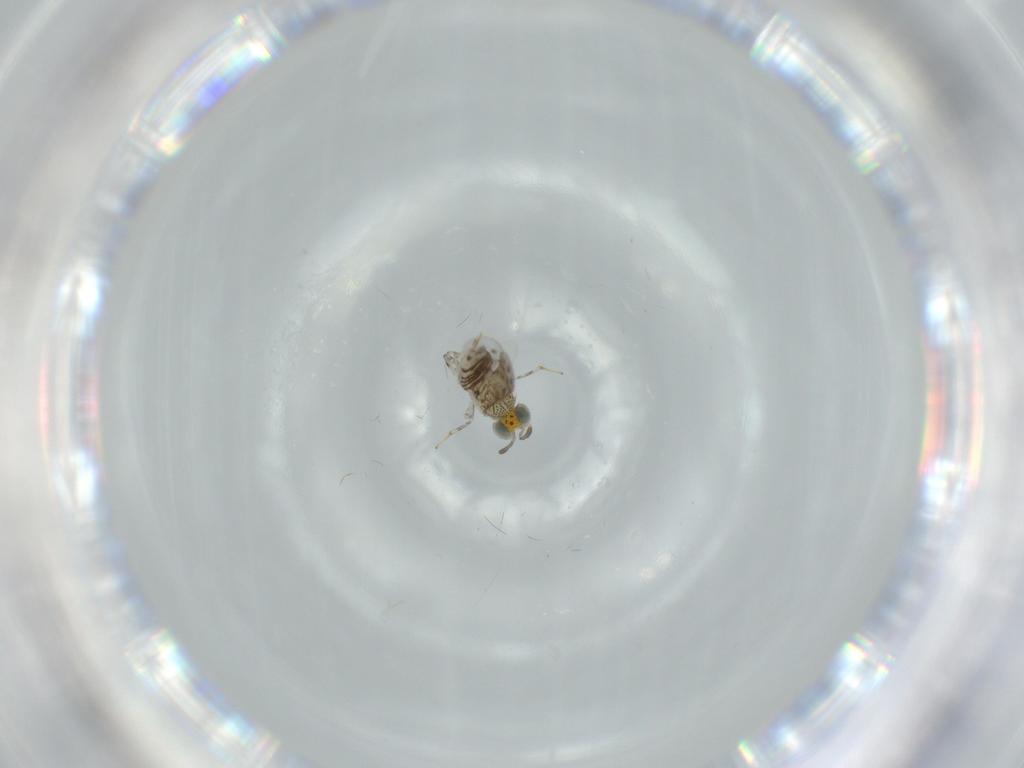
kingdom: Animalia
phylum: Arthropoda
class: Insecta
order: Hymenoptera
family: Aphelinidae
